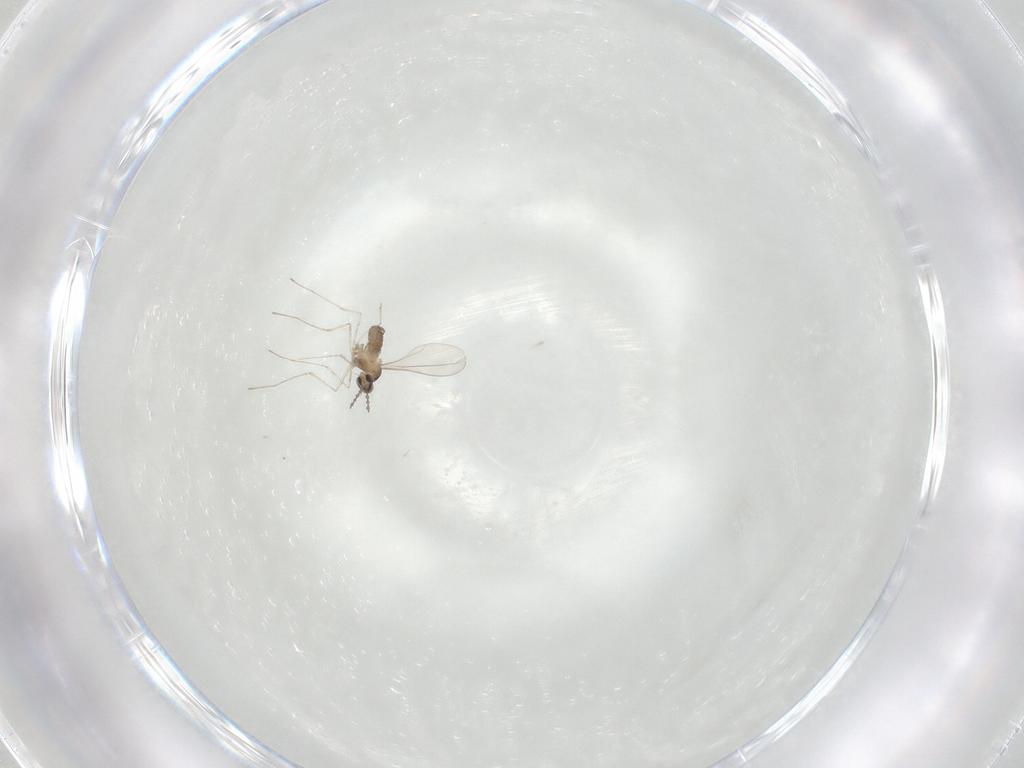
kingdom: Animalia
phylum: Arthropoda
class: Insecta
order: Diptera
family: Cecidomyiidae
